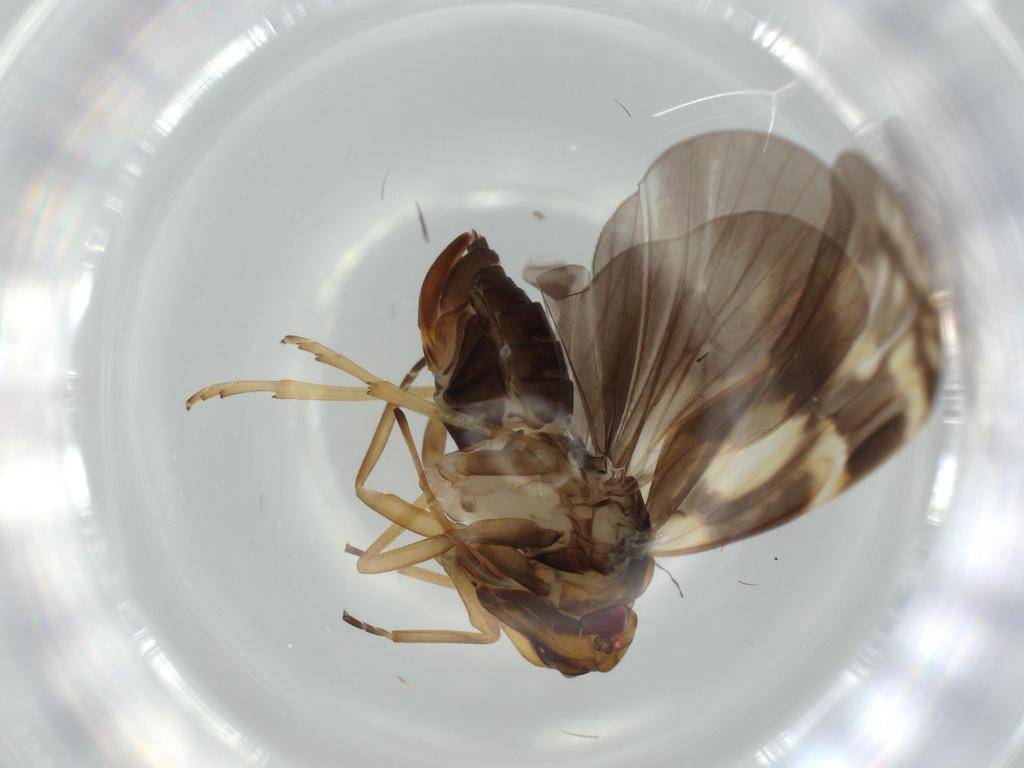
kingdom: Animalia
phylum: Arthropoda
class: Insecta
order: Hemiptera
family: Cixiidae
